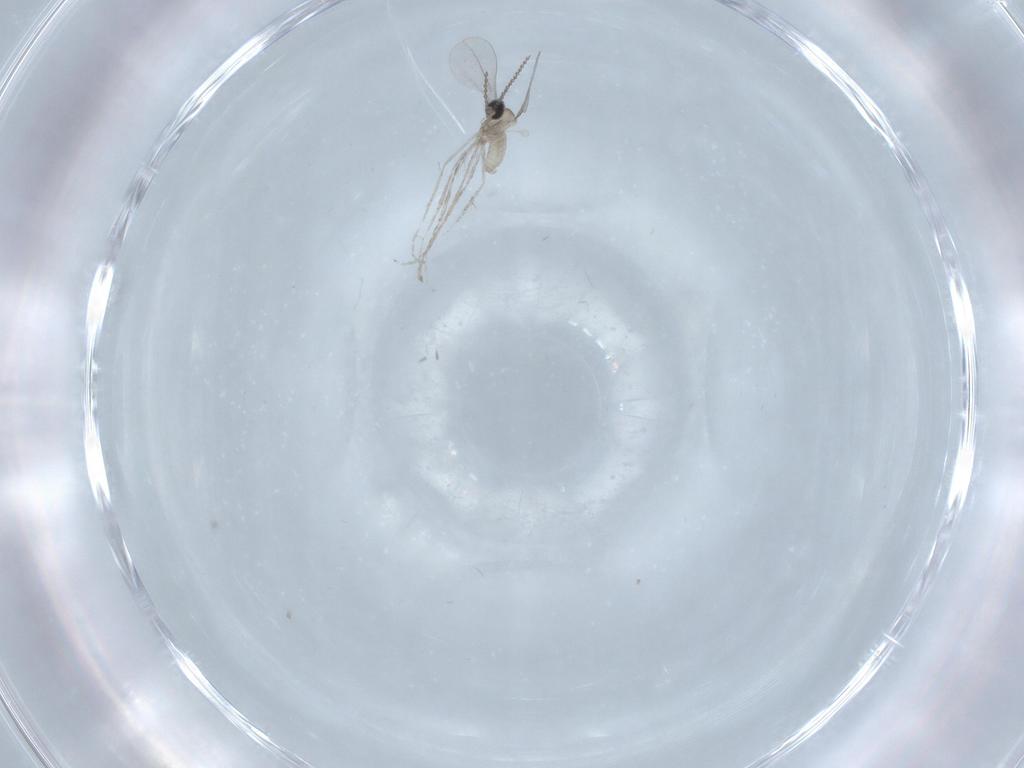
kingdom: Animalia
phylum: Arthropoda
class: Insecta
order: Diptera
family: Cecidomyiidae
